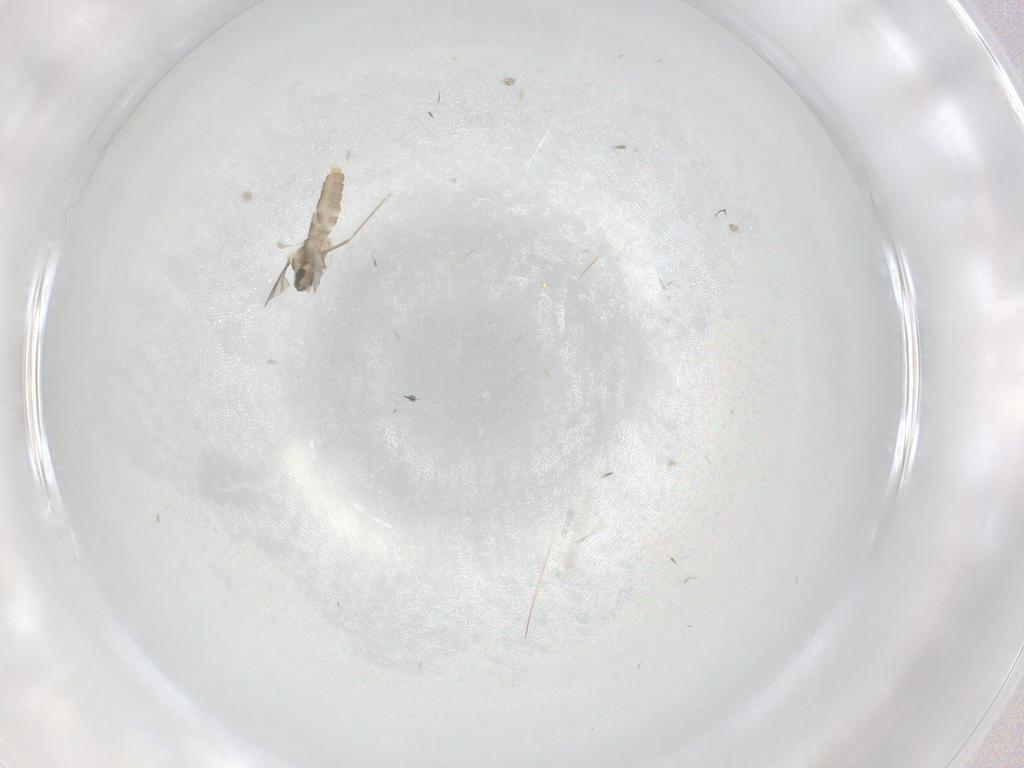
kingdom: Animalia
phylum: Arthropoda
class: Insecta
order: Diptera
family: Cecidomyiidae
